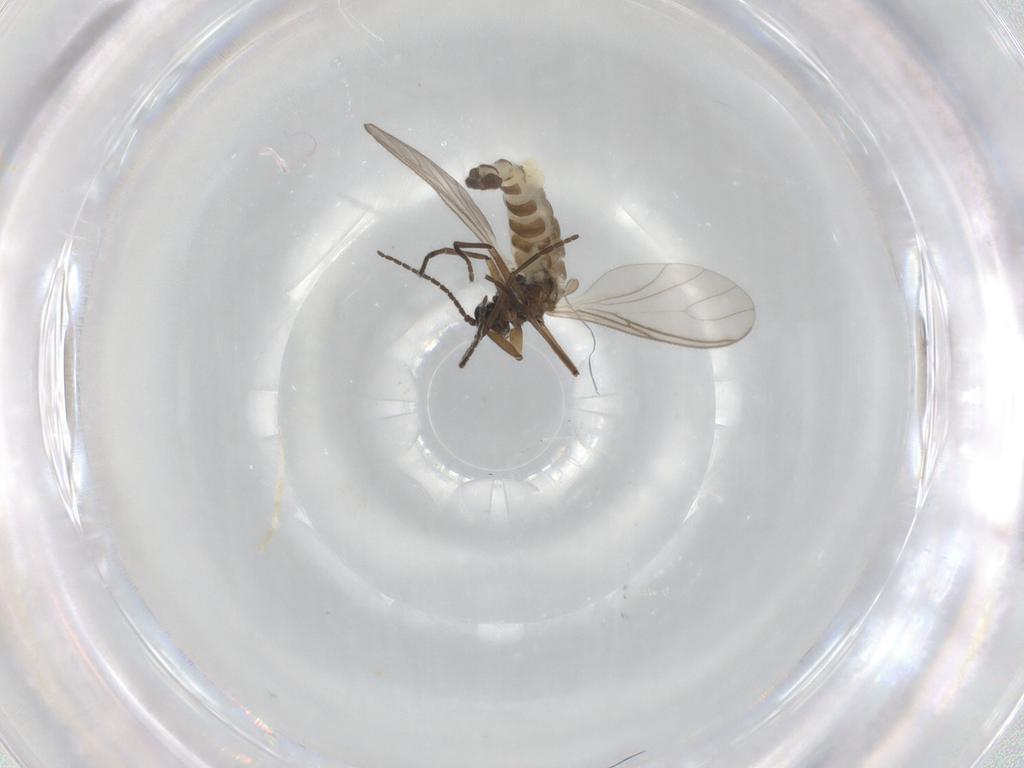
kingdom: Animalia
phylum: Arthropoda
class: Insecta
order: Diptera
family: Sciaridae
